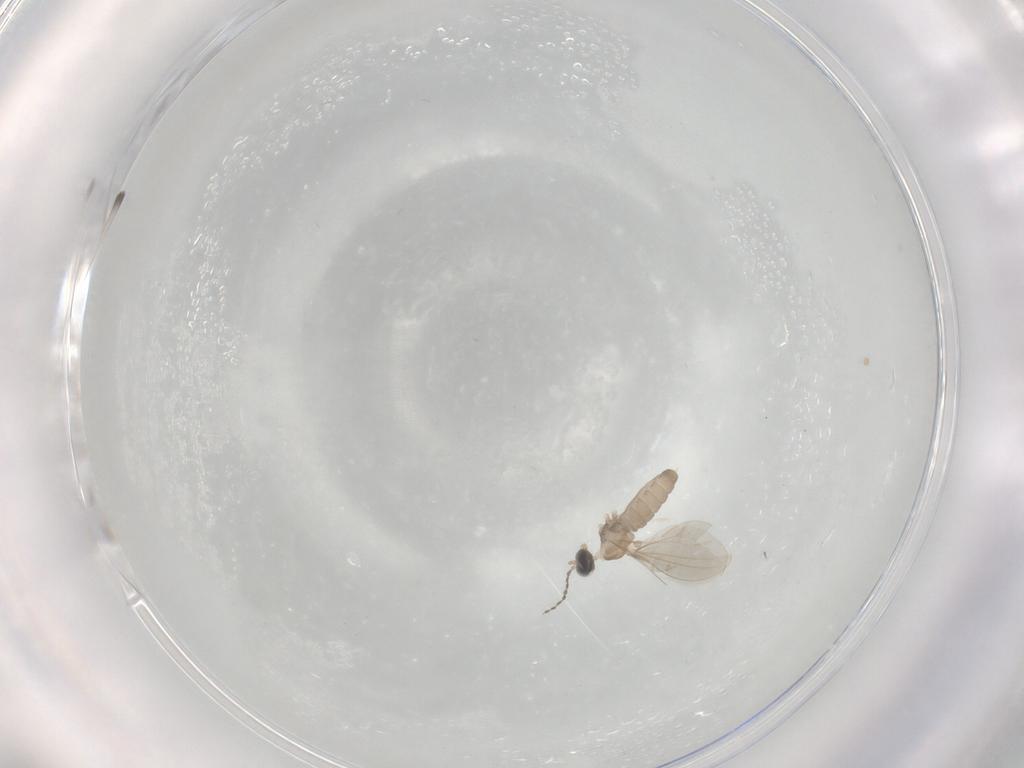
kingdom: Animalia
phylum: Arthropoda
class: Insecta
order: Diptera
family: Cecidomyiidae
